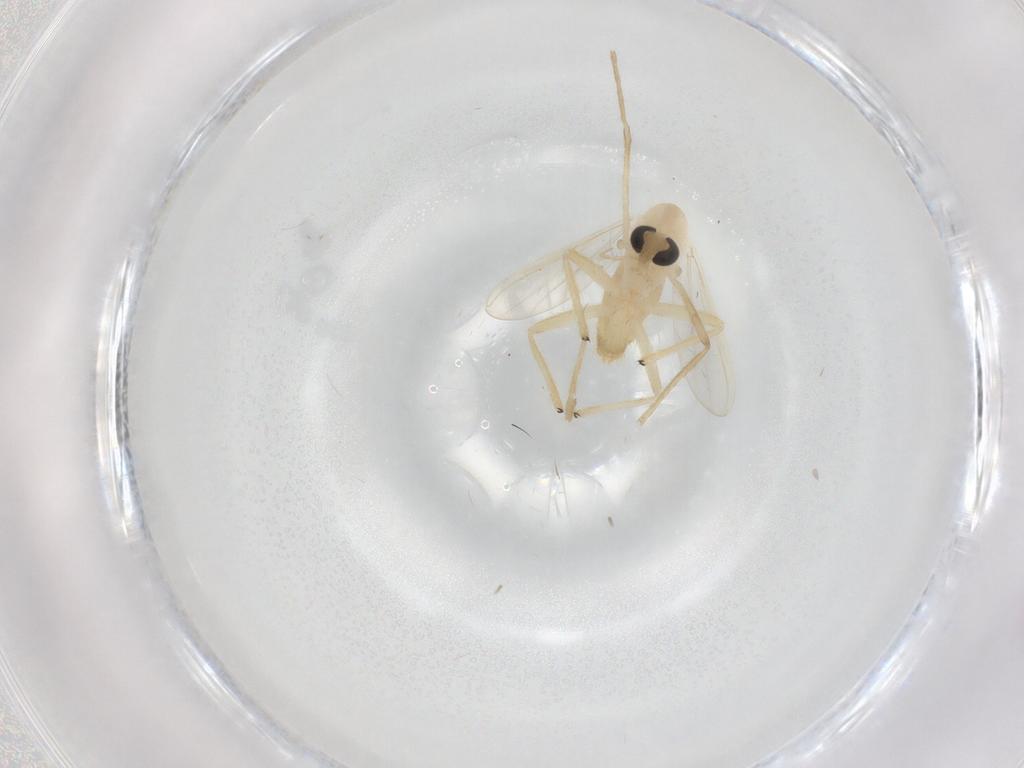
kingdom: Animalia
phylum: Arthropoda
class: Insecta
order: Diptera
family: Chironomidae
